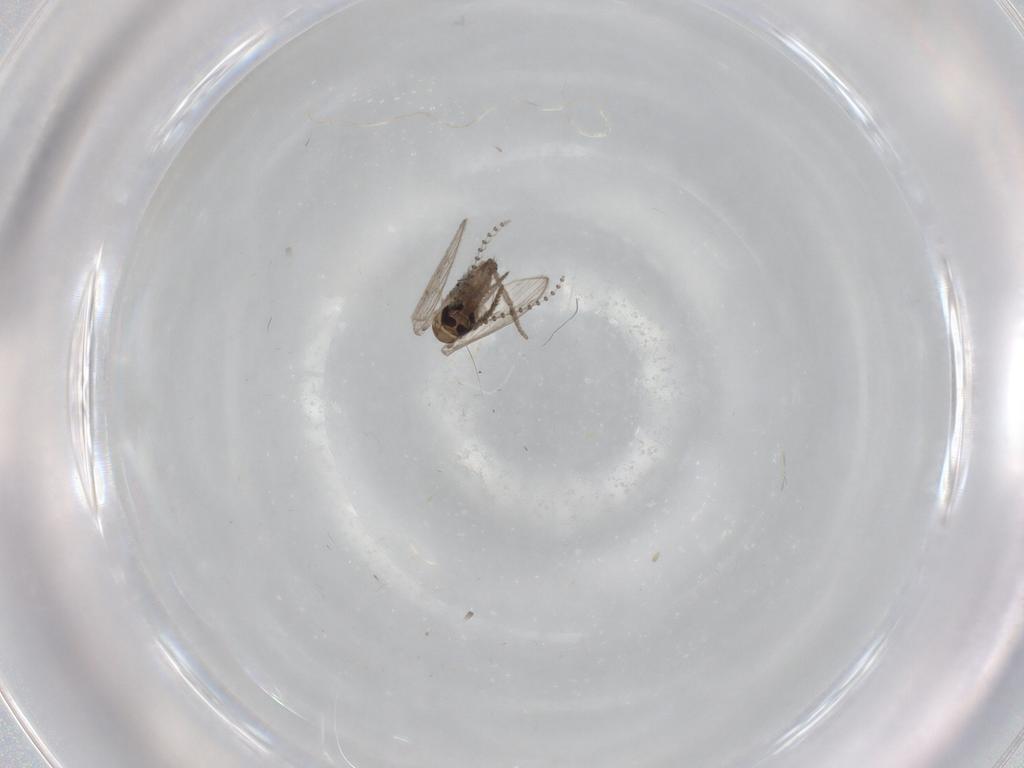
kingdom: Animalia
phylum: Arthropoda
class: Insecta
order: Diptera
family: Psychodidae
